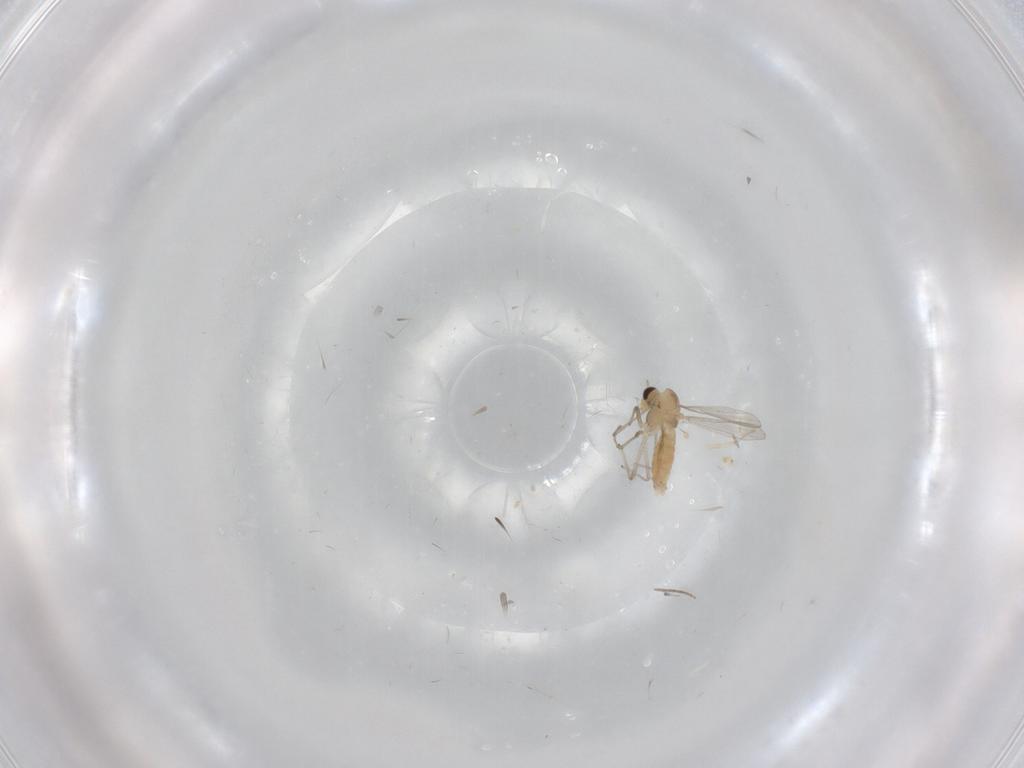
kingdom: Animalia
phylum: Arthropoda
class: Insecta
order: Diptera
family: Chironomidae
